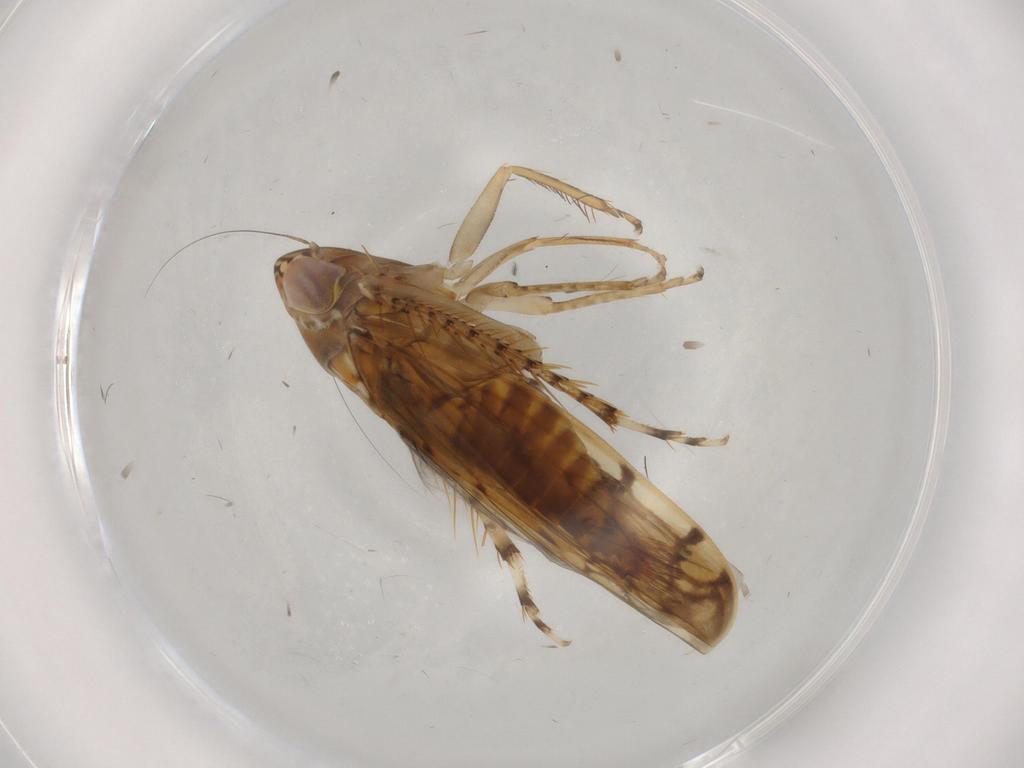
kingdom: Animalia
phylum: Arthropoda
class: Insecta
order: Hemiptera
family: Cicadellidae
